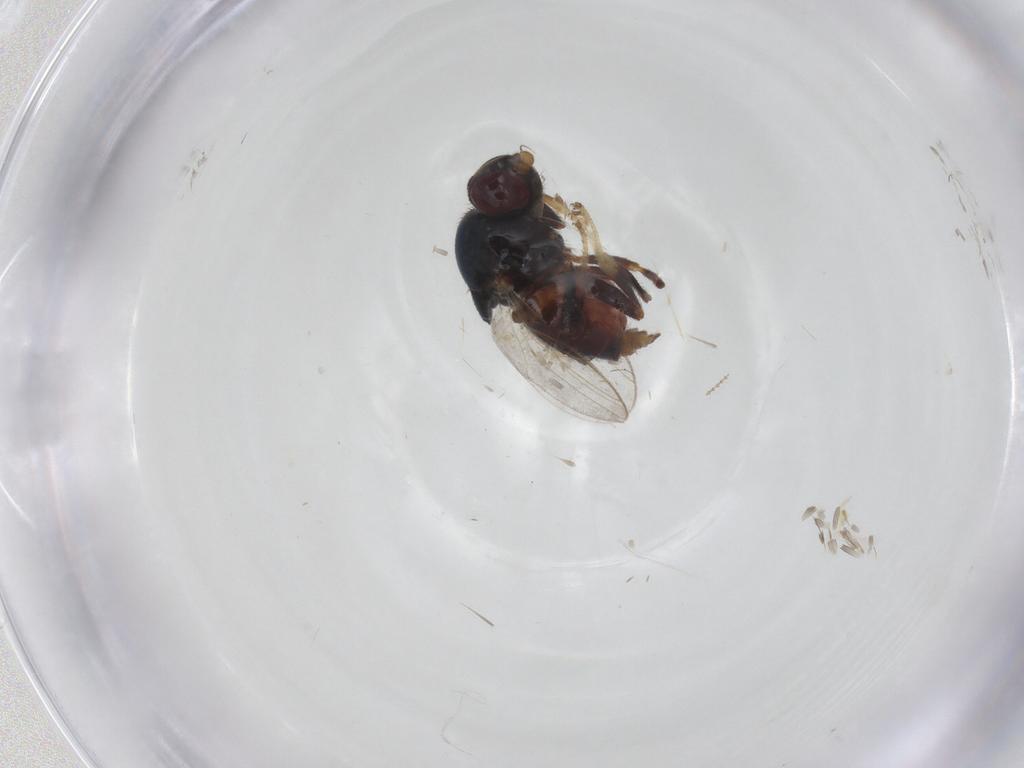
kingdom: Animalia
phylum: Arthropoda
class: Insecta
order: Diptera
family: Chloropidae
